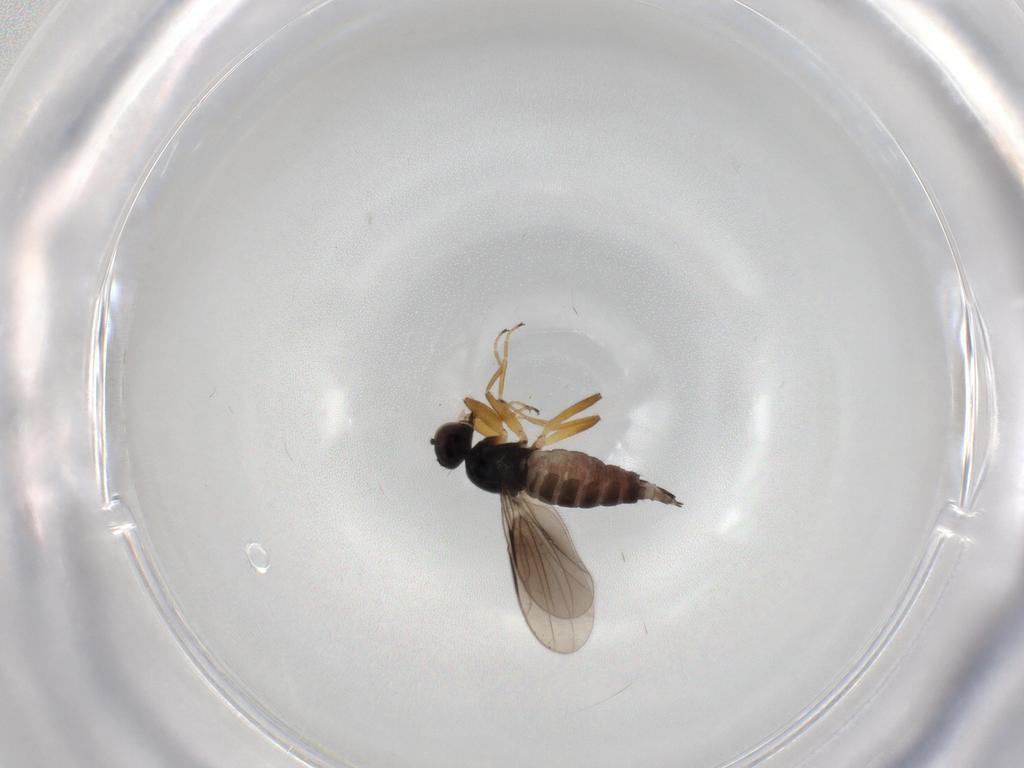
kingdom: Animalia
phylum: Arthropoda
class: Insecta
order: Diptera
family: Hybotidae
